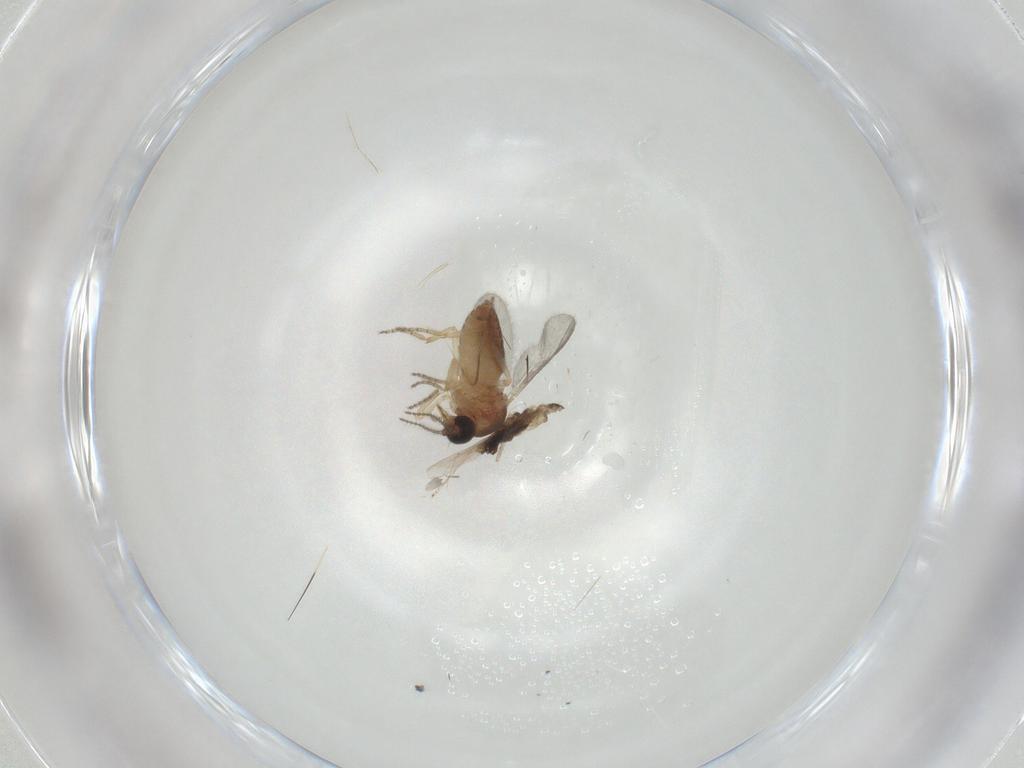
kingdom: Animalia
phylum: Arthropoda
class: Insecta
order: Diptera
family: Ceratopogonidae
